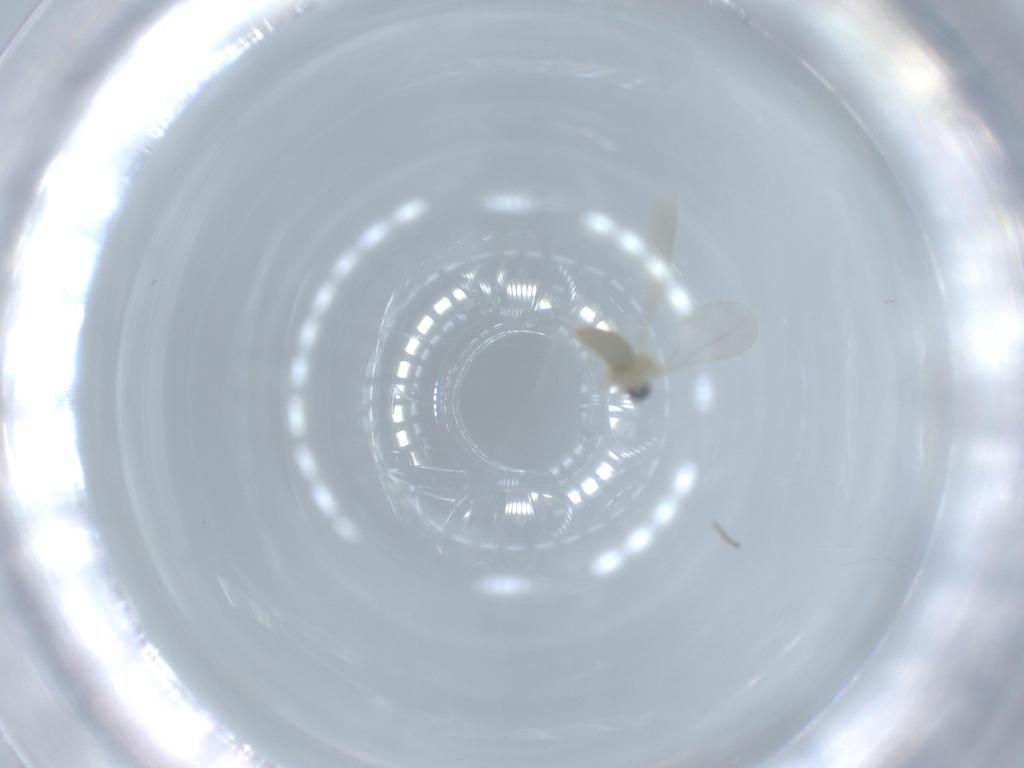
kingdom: Animalia
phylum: Arthropoda
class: Insecta
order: Diptera
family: Cecidomyiidae
